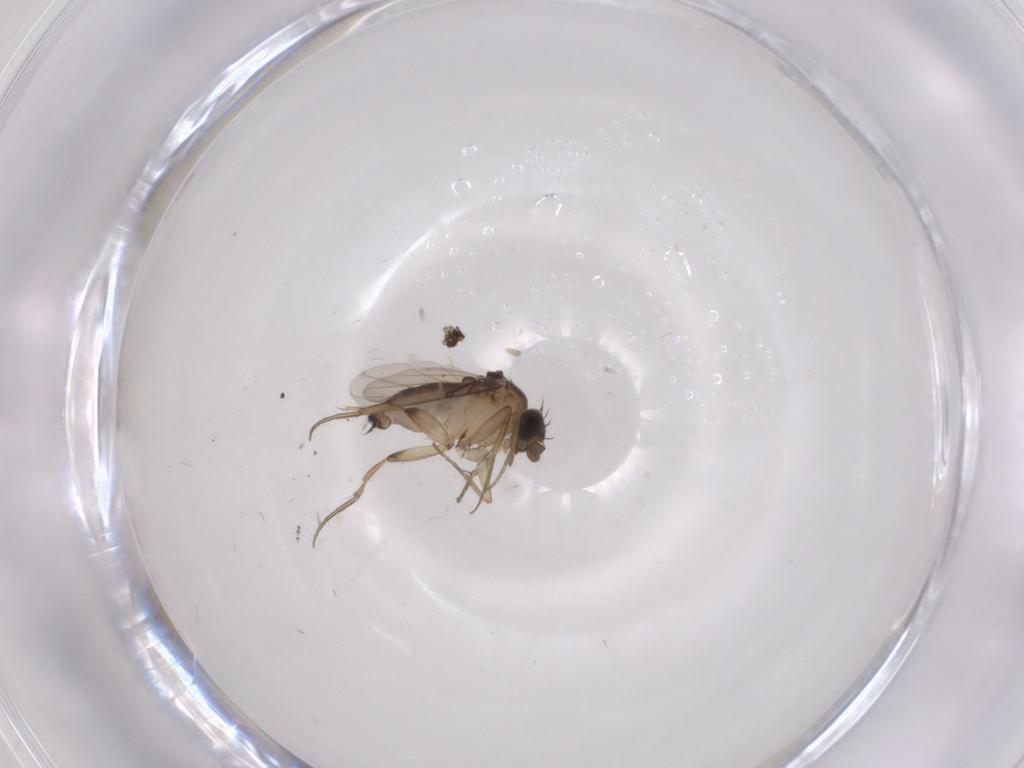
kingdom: Animalia
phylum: Arthropoda
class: Insecta
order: Diptera
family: Phoridae
